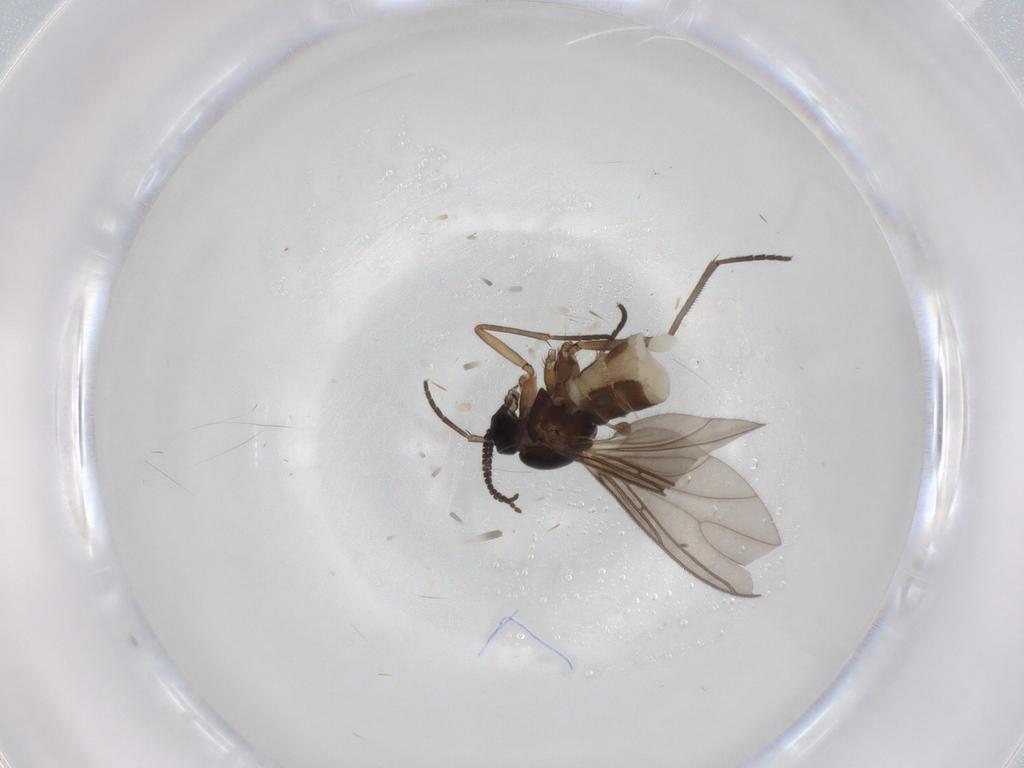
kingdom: Animalia
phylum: Arthropoda
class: Insecta
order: Diptera
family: Sciaridae
